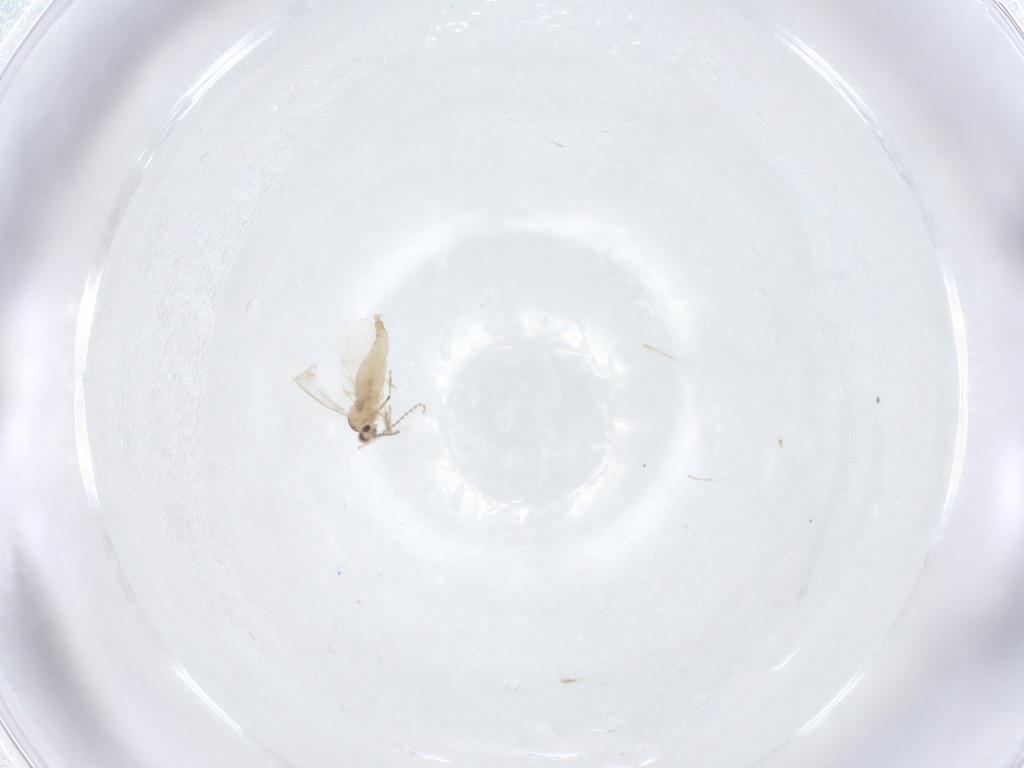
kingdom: Animalia
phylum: Arthropoda
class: Insecta
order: Diptera
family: Cecidomyiidae
